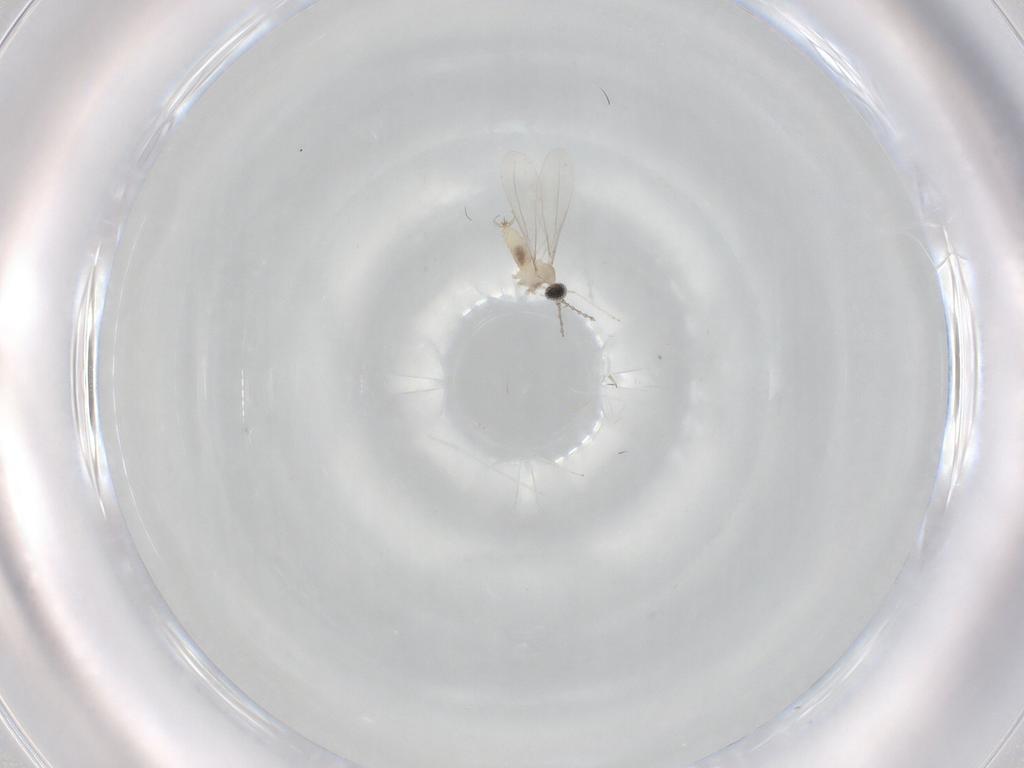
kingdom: Animalia
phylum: Arthropoda
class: Insecta
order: Diptera
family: Cecidomyiidae
